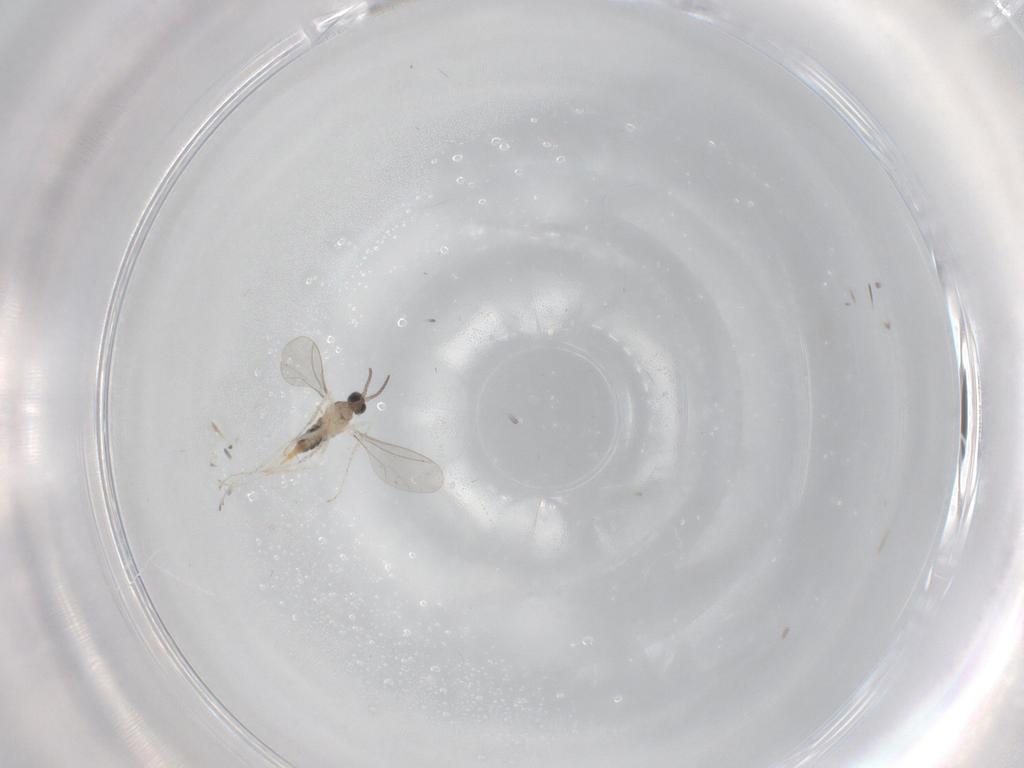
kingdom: Animalia
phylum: Arthropoda
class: Insecta
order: Diptera
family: Cecidomyiidae
